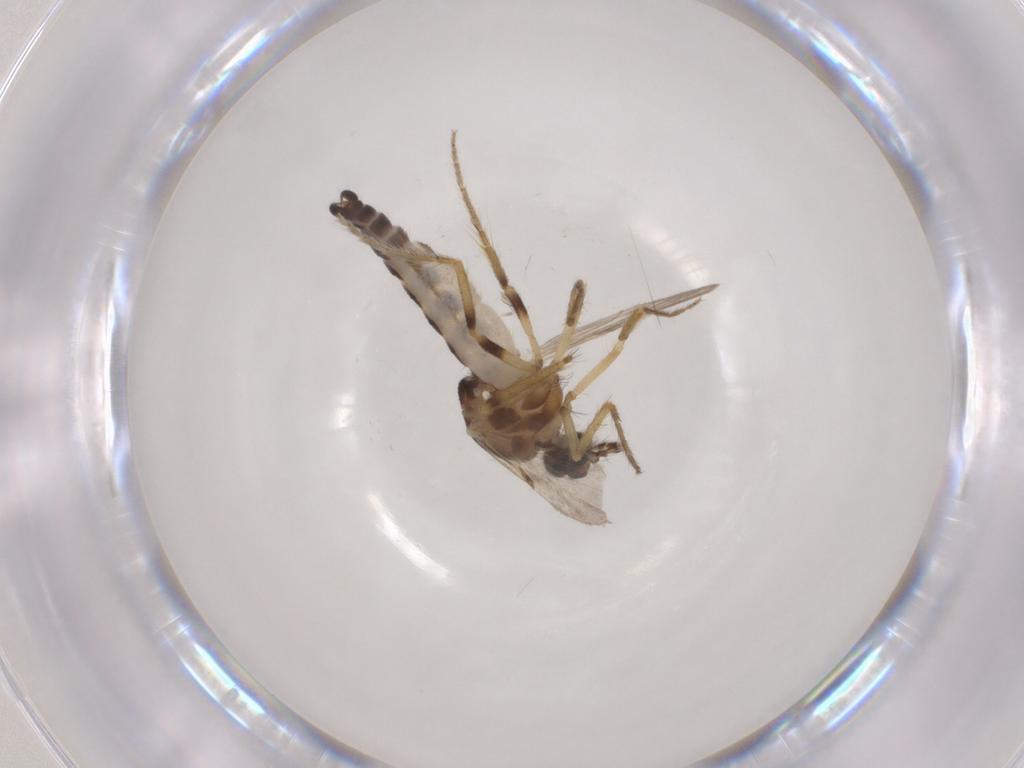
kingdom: Animalia
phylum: Arthropoda
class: Insecta
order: Diptera
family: Ceratopogonidae
